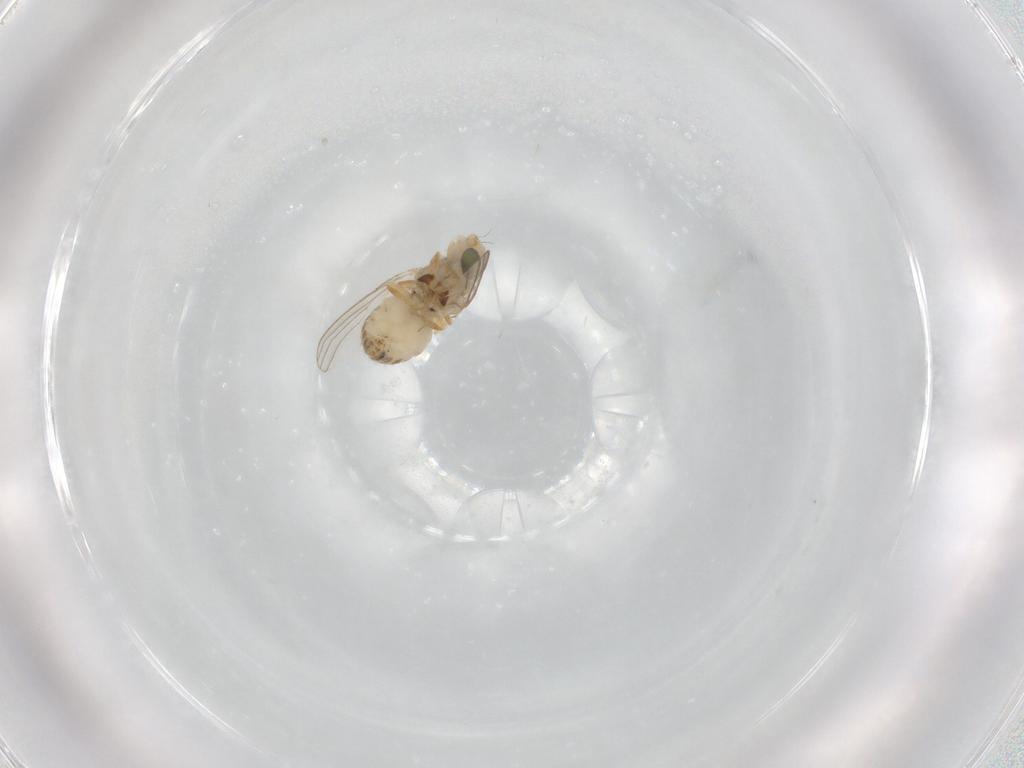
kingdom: Animalia
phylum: Arthropoda
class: Insecta
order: Diptera
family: Chyromyidae
